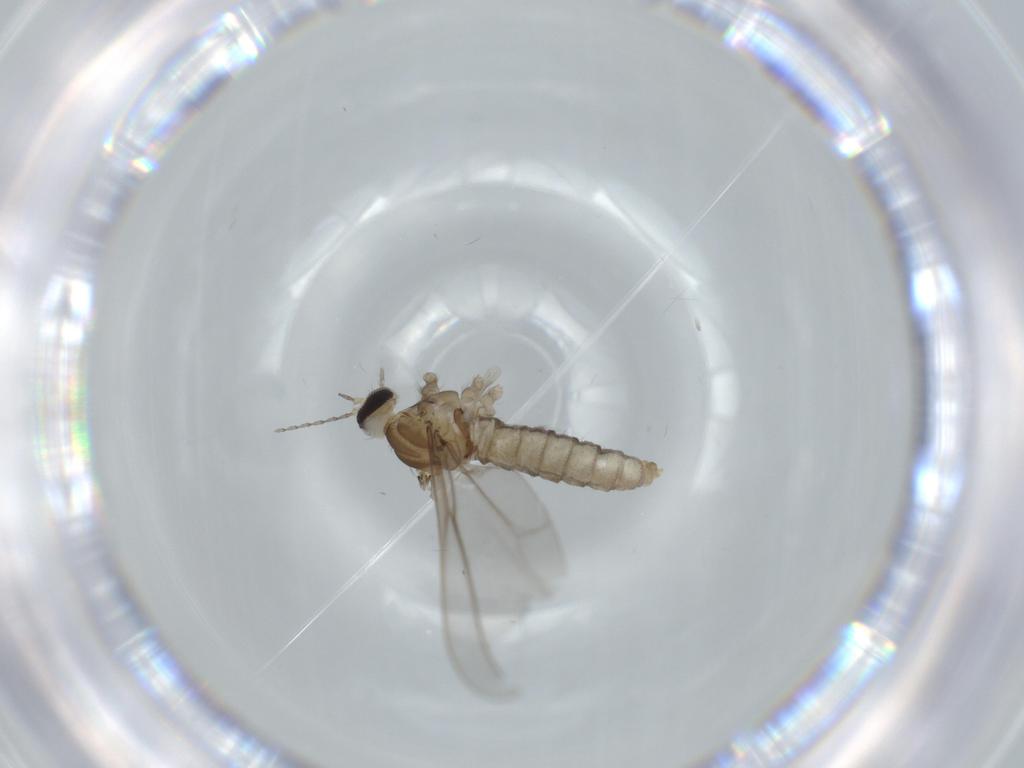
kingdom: Animalia
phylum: Arthropoda
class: Insecta
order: Diptera
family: Cecidomyiidae
